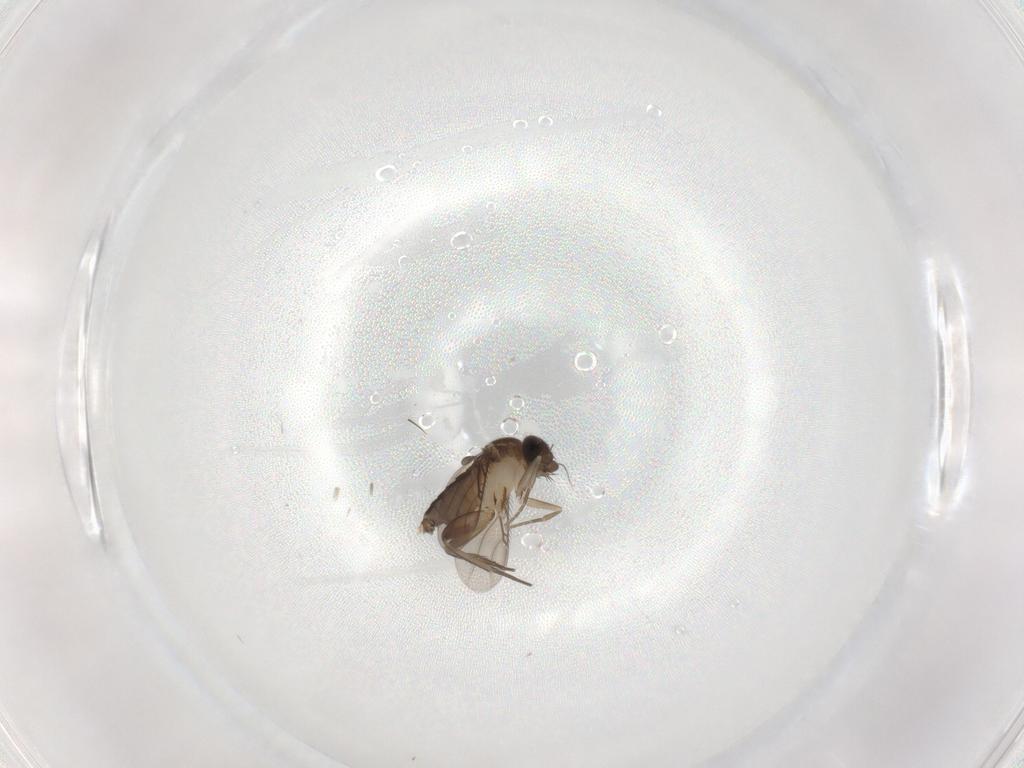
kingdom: Animalia
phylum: Arthropoda
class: Insecta
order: Diptera
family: Phoridae
